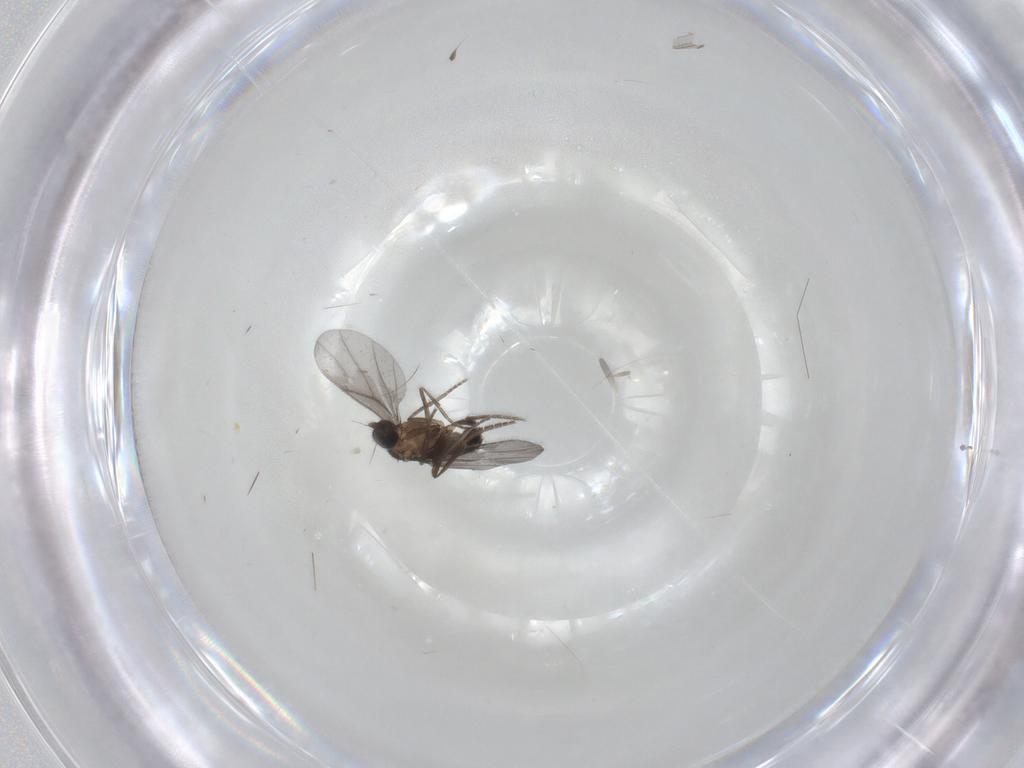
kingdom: Animalia
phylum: Arthropoda
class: Insecta
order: Diptera
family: Sciaridae
